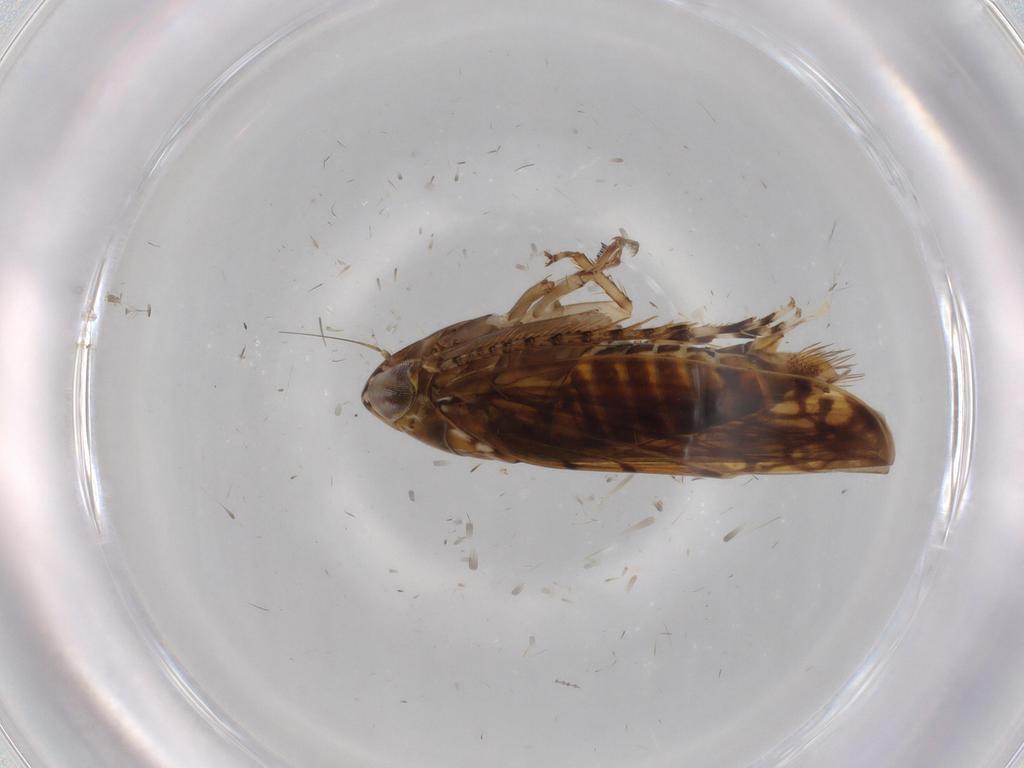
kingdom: Animalia
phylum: Arthropoda
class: Insecta
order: Hemiptera
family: Cicadellidae
